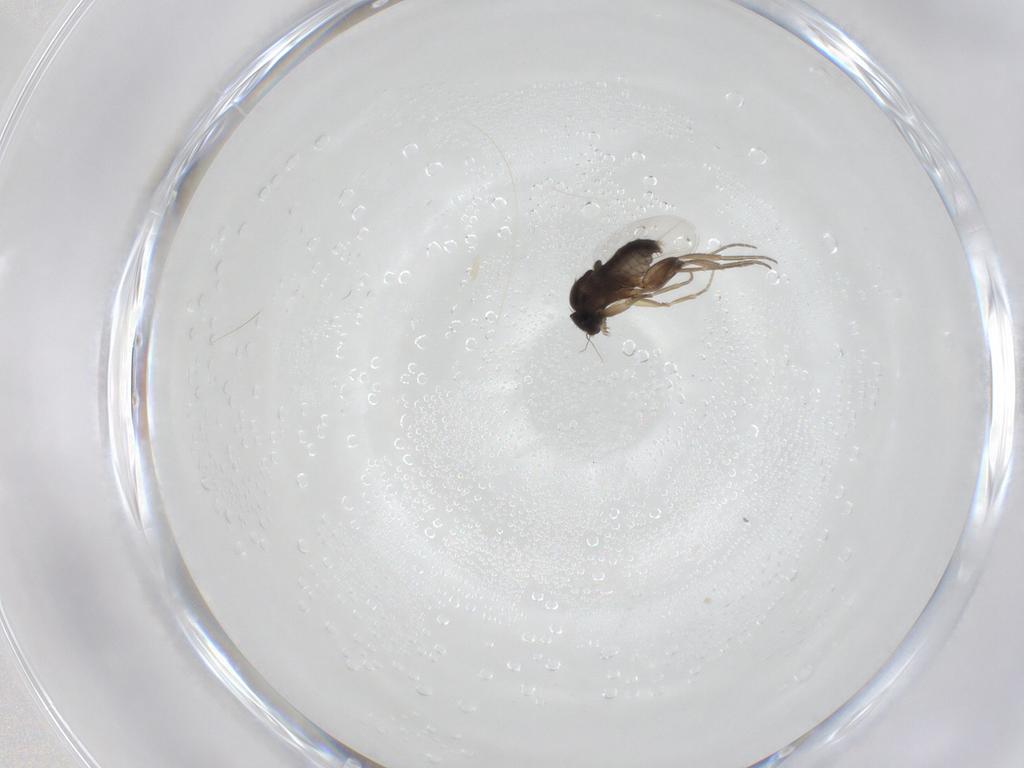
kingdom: Animalia
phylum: Arthropoda
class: Insecta
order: Diptera
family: Phoridae
